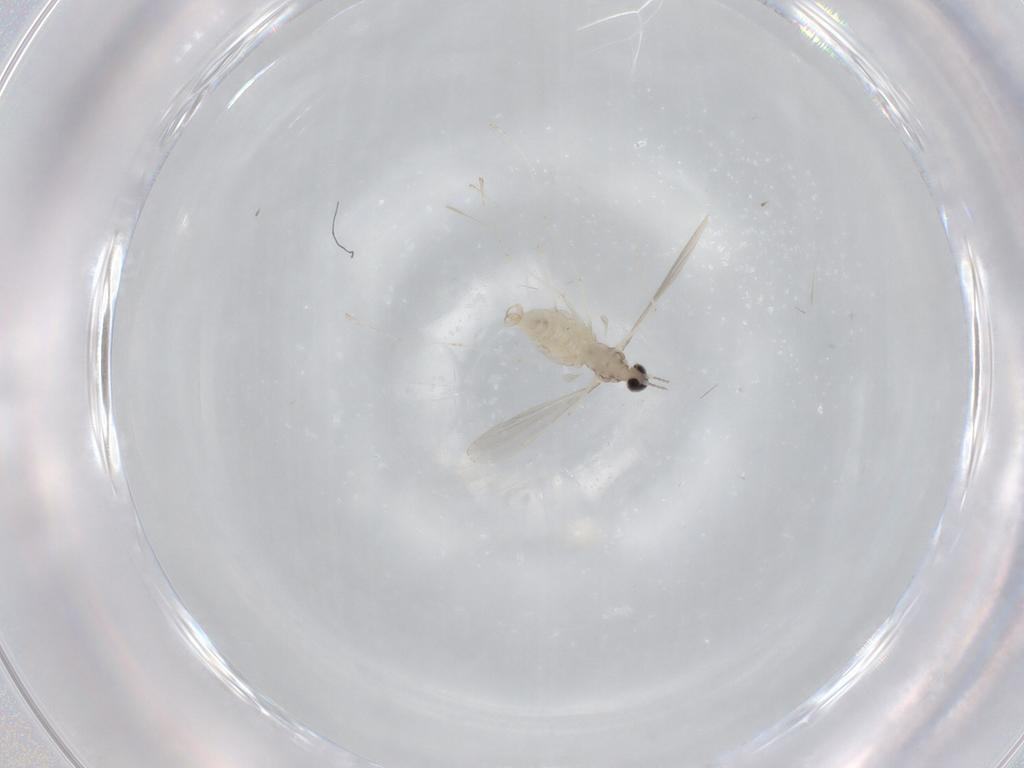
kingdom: Animalia
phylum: Arthropoda
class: Insecta
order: Diptera
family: Cecidomyiidae
